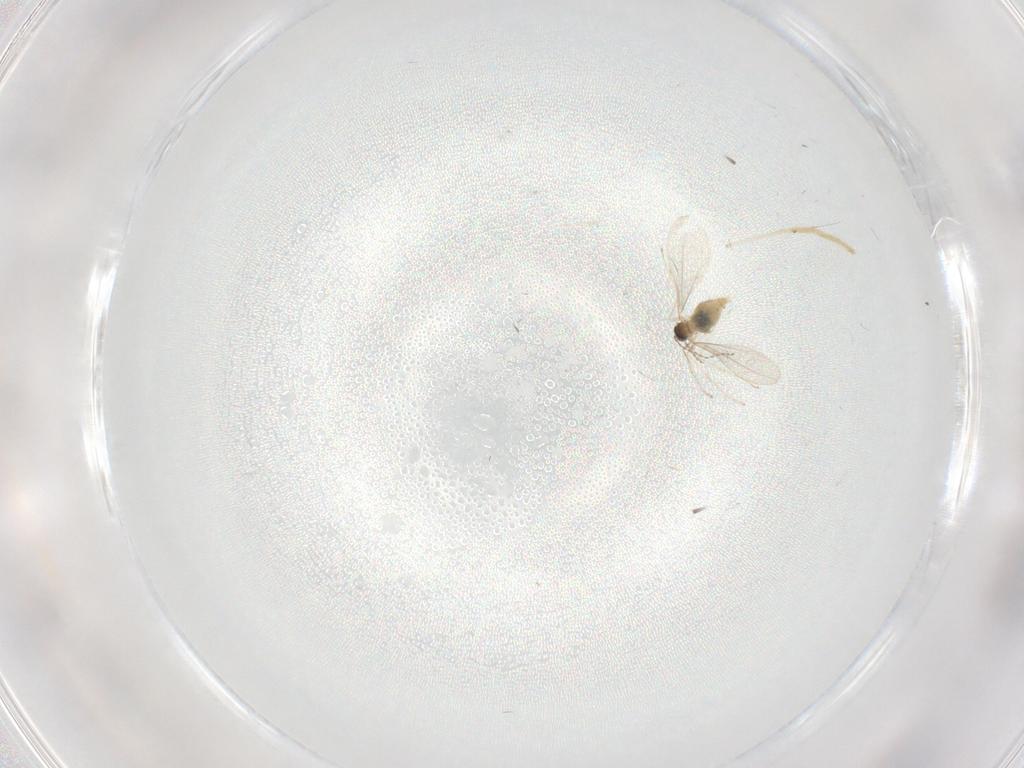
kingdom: Animalia
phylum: Arthropoda
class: Insecta
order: Diptera
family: Cecidomyiidae
